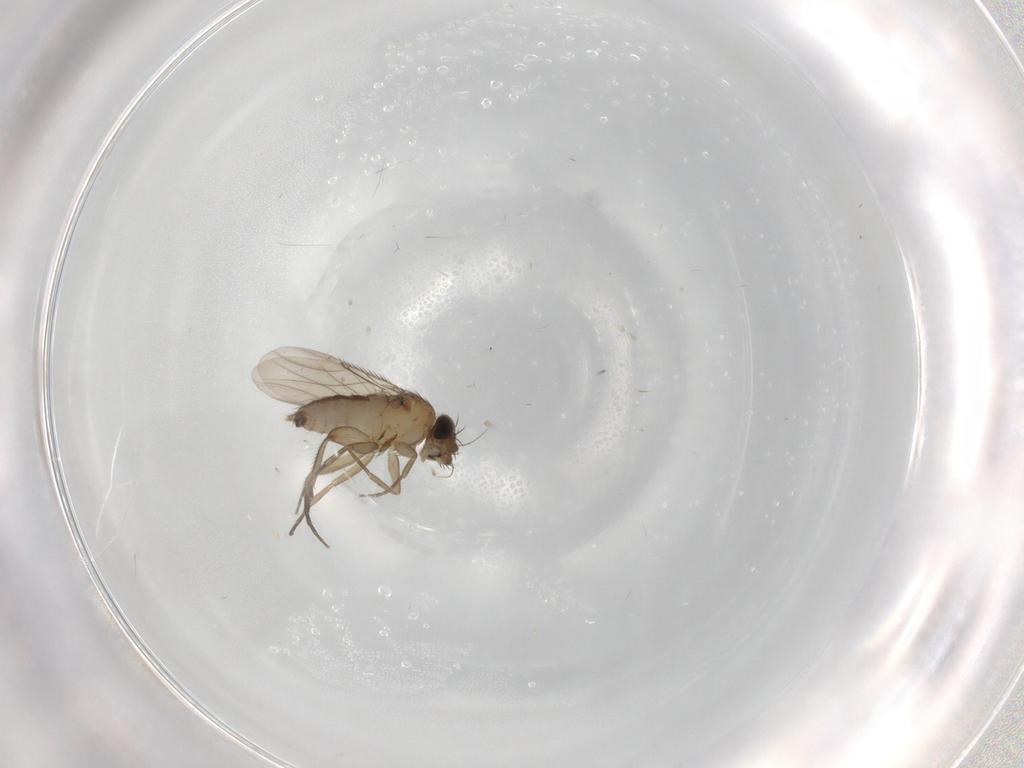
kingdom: Animalia
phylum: Arthropoda
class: Insecta
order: Diptera
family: Phoridae
